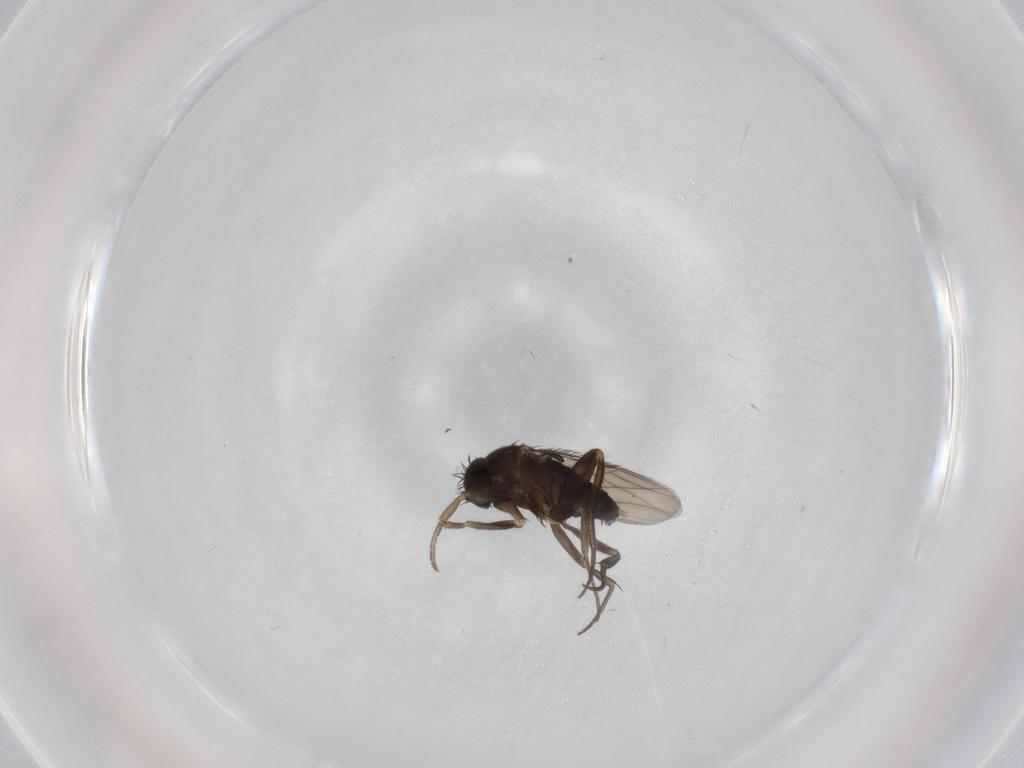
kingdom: Animalia
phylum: Arthropoda
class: Insecta
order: Diptera
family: Phoridae
